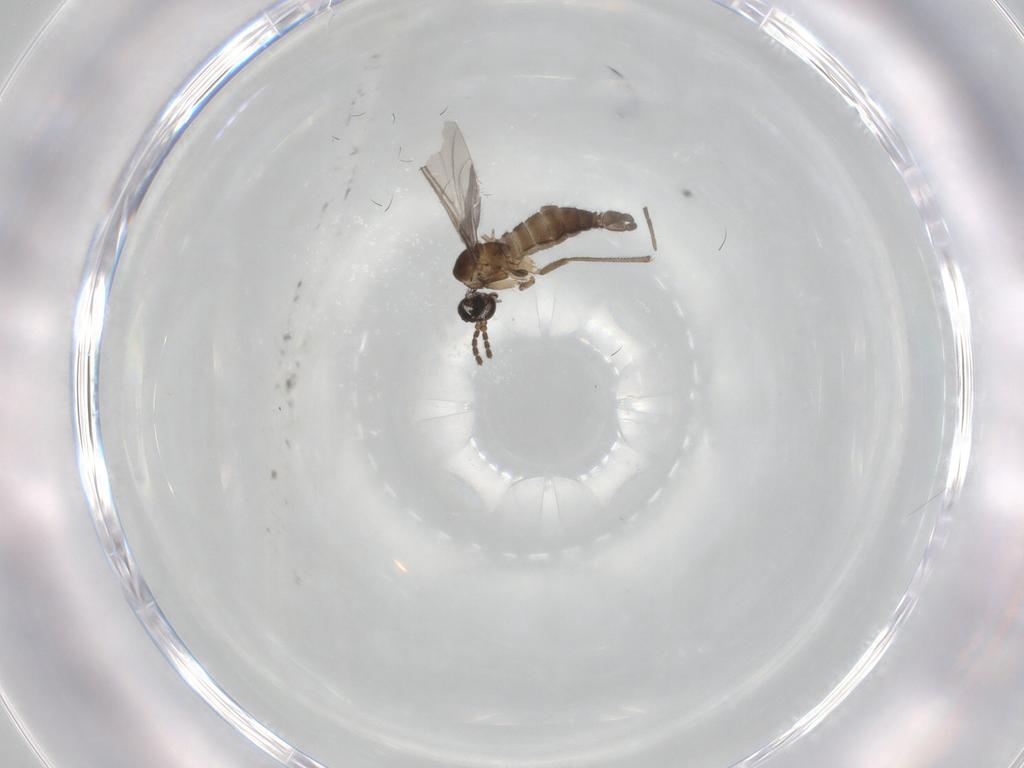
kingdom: Animalia
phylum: Arthropoda
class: Insecta
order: Diptera
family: Sciaridae
